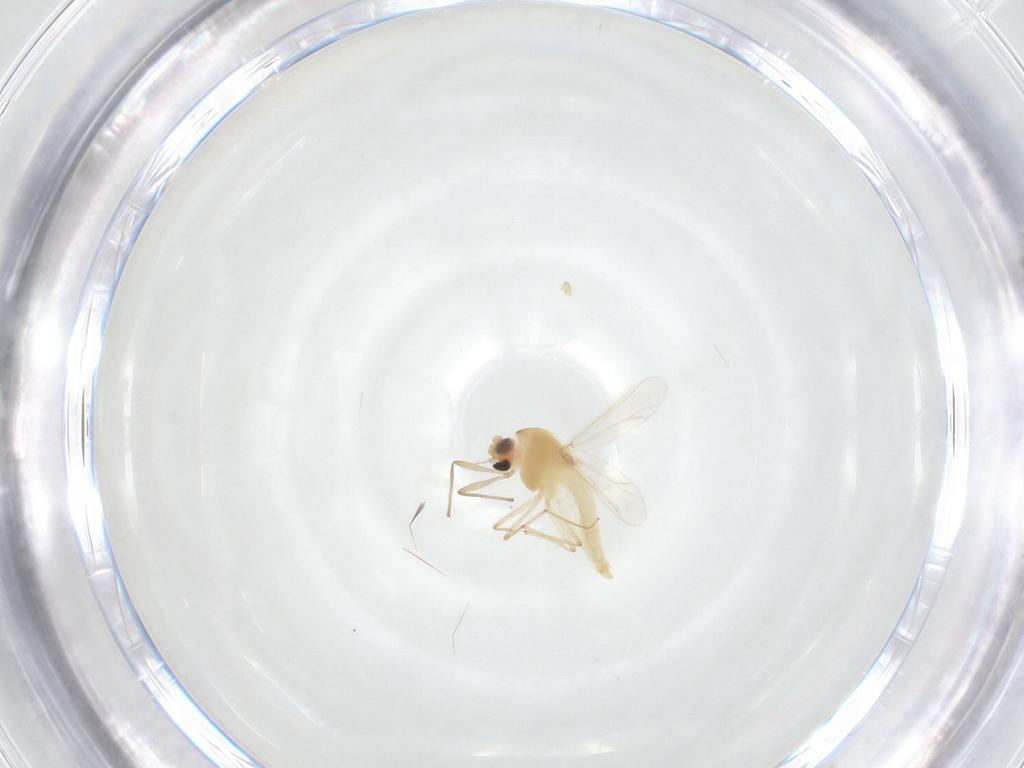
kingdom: Animalia
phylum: Arthropoda
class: Insecta
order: Diptera
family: Chironomidae
